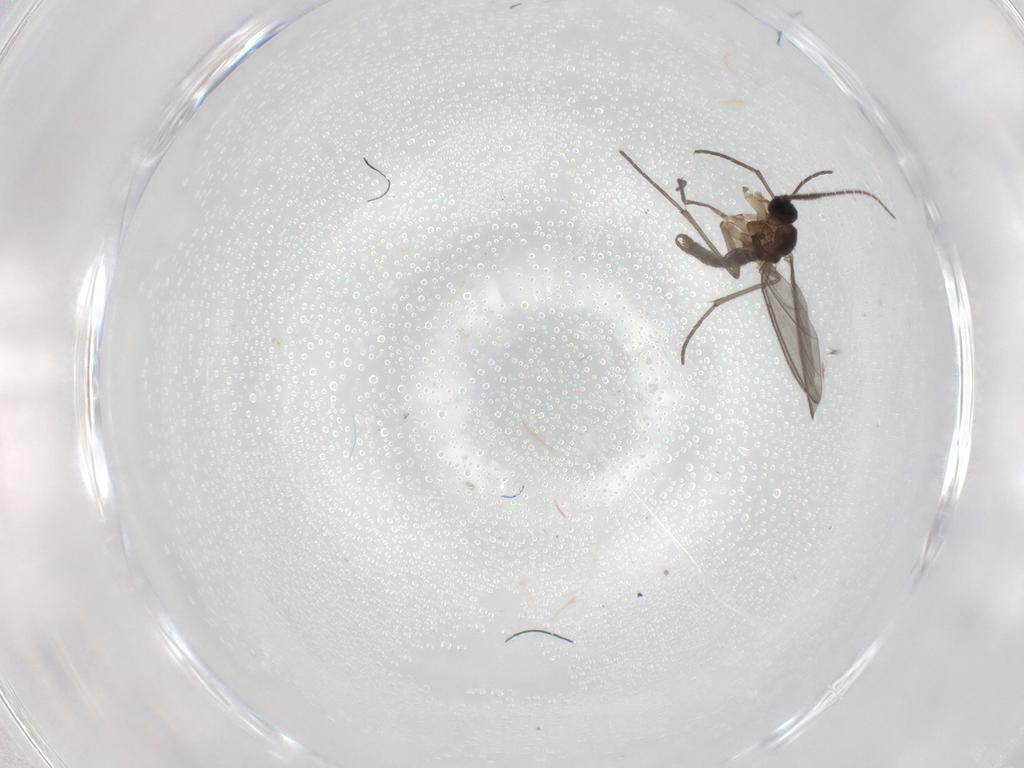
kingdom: Animalia
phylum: Arthropoda
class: Insecta
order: Diptera
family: Sciaridae
